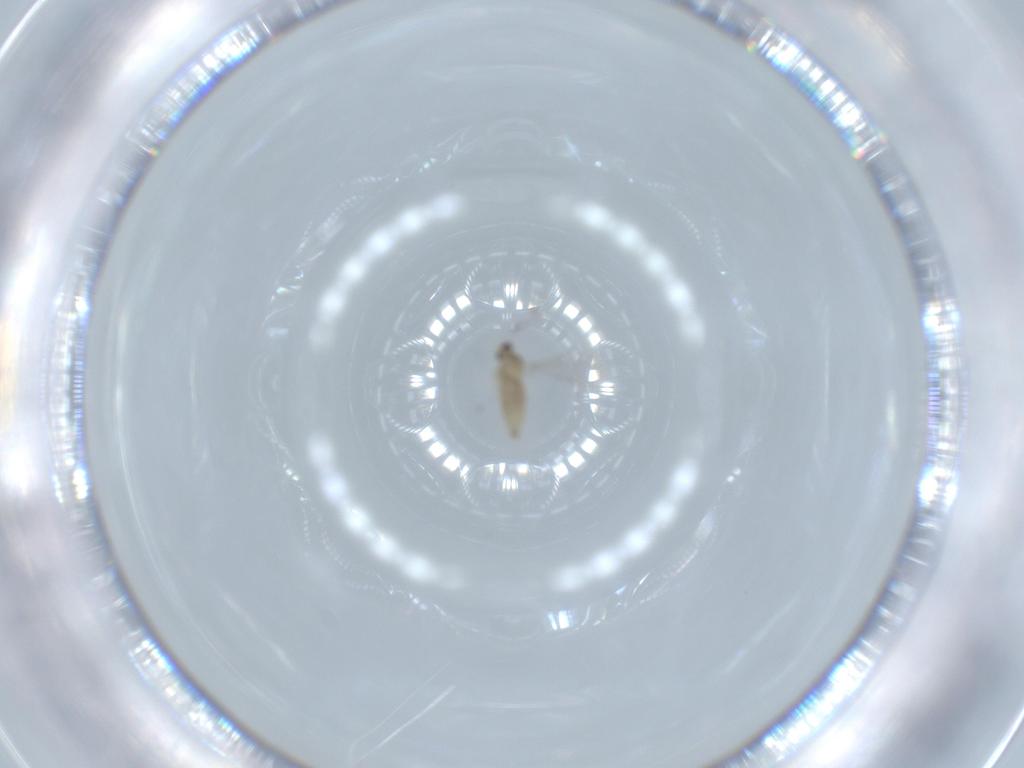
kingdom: Animalia
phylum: Arthropoda
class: Insecta
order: Diptera
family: Cecidomyiidae
